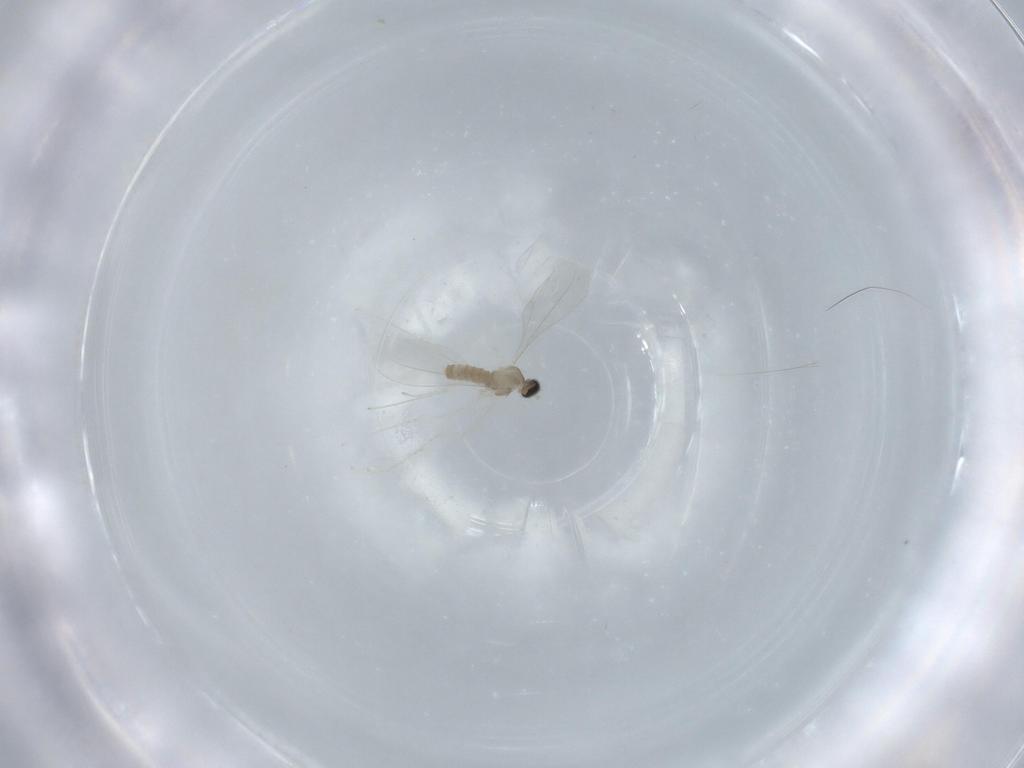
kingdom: Animalia
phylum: Arthropoda
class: Insecta
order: Diptera
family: Cecidomyiidae
